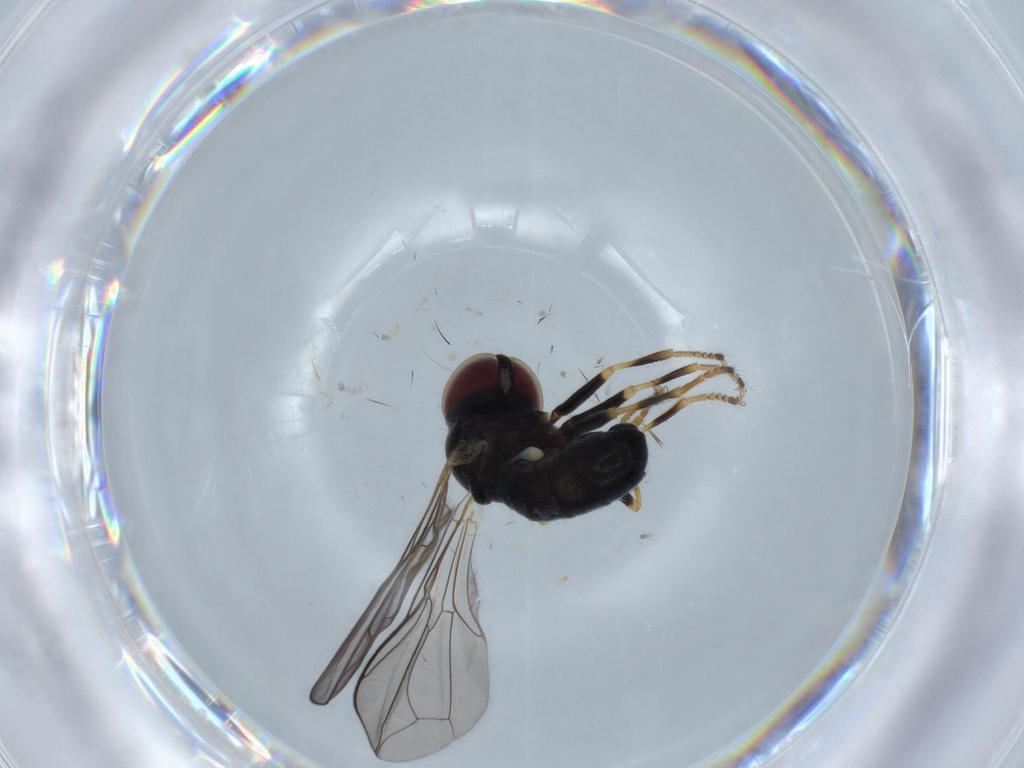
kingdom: Animalia
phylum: Arthropoda
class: Insecta
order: Diptera
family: Pipunculidae
